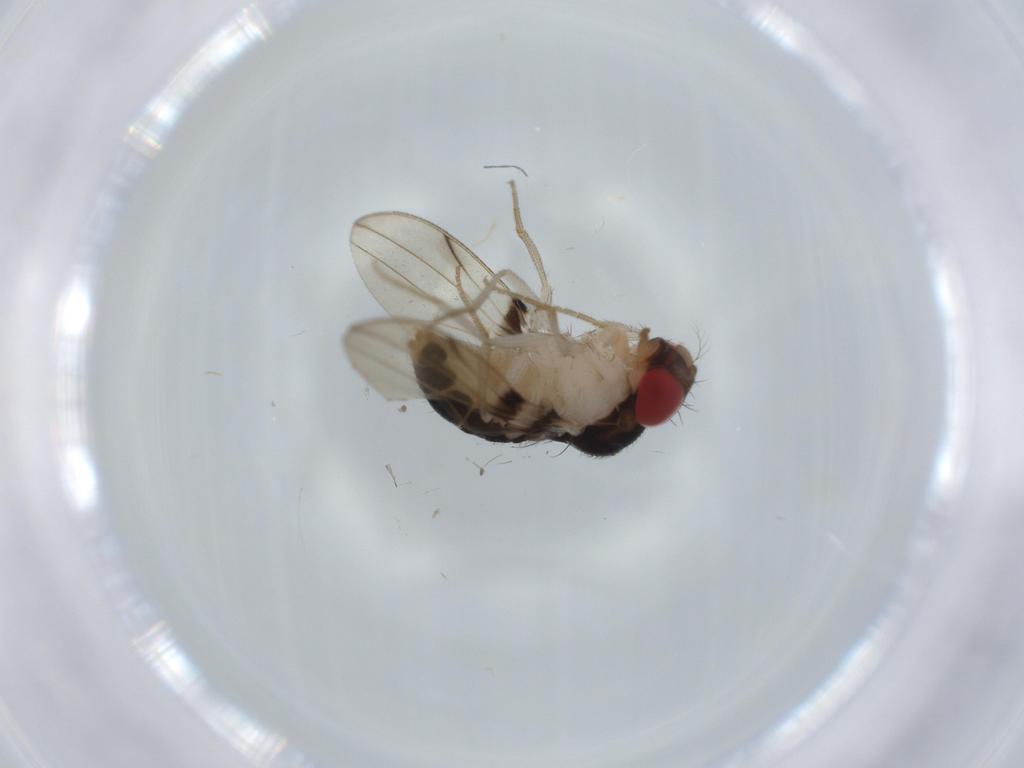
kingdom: Animalia
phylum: Arthropoda
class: Insecta
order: Diptera
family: Drosophilidae
